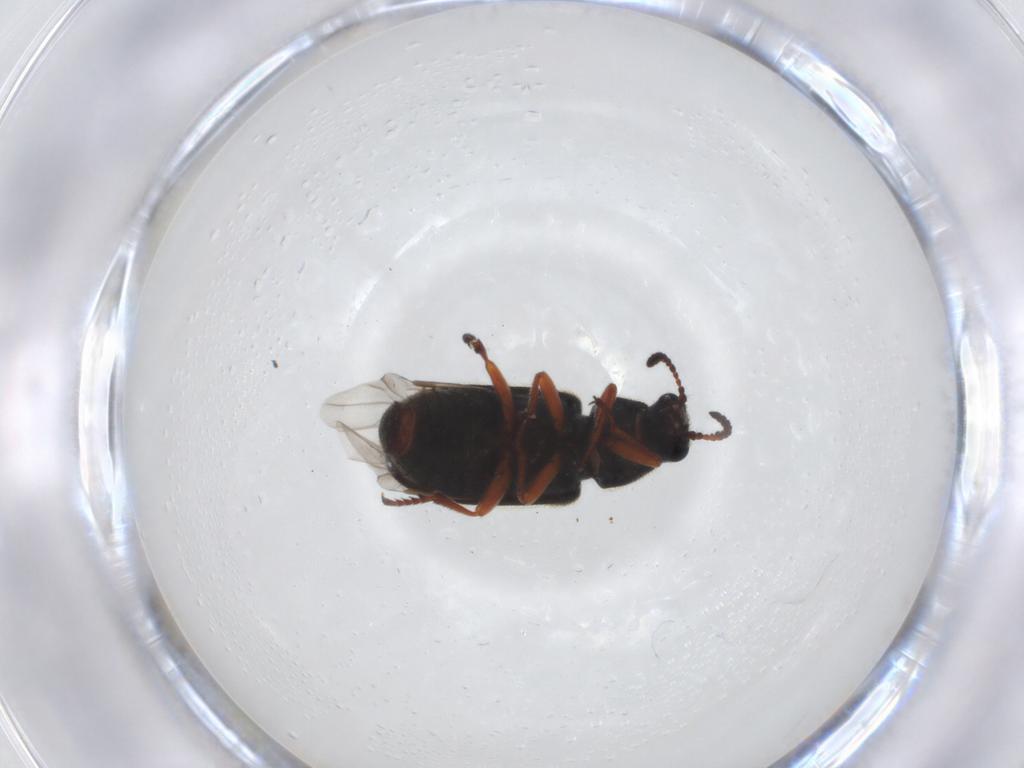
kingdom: Animalia
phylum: Arthropoda
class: Insecta
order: Coleoptera
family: Melyridae
